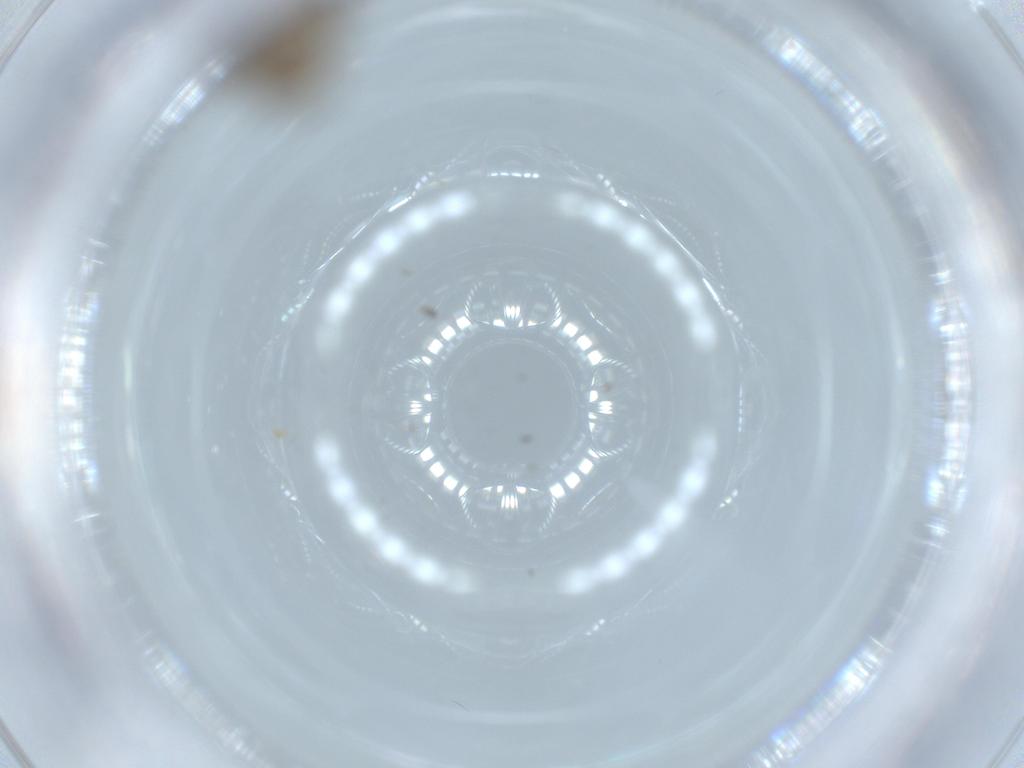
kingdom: Animalia
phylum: Arthropoda
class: Insecta
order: Diptera
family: Ceratopogonidae
